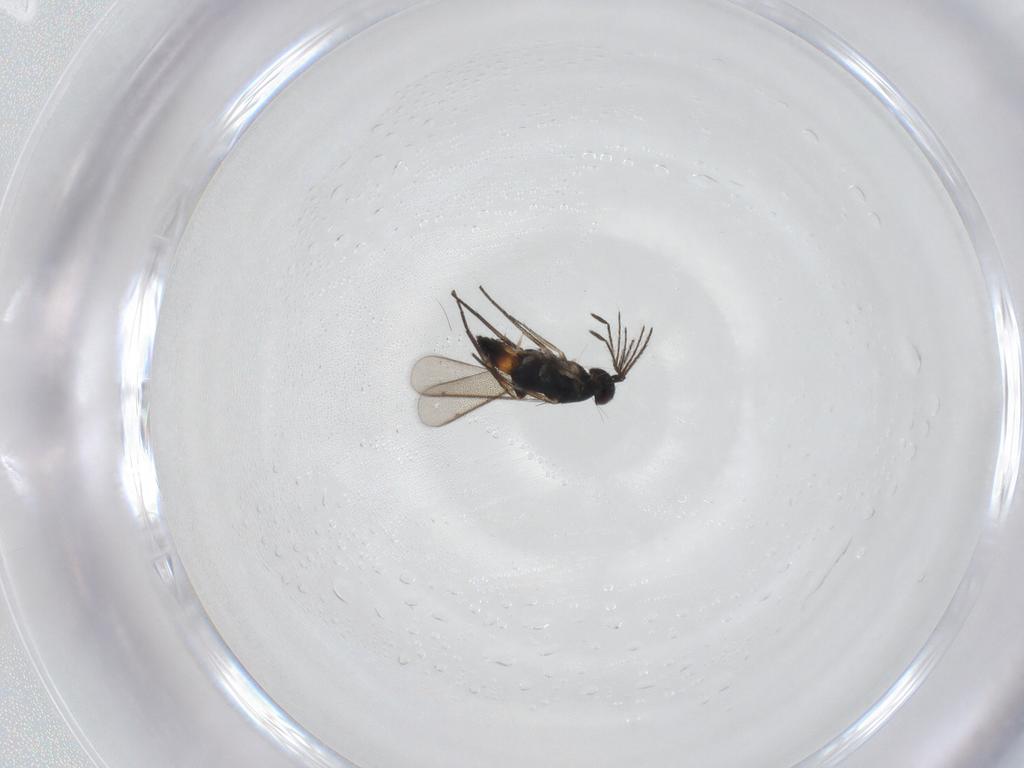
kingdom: Animalia
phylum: Arthropoda
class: Insecta
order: Hymenoptera
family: Eulophidae
